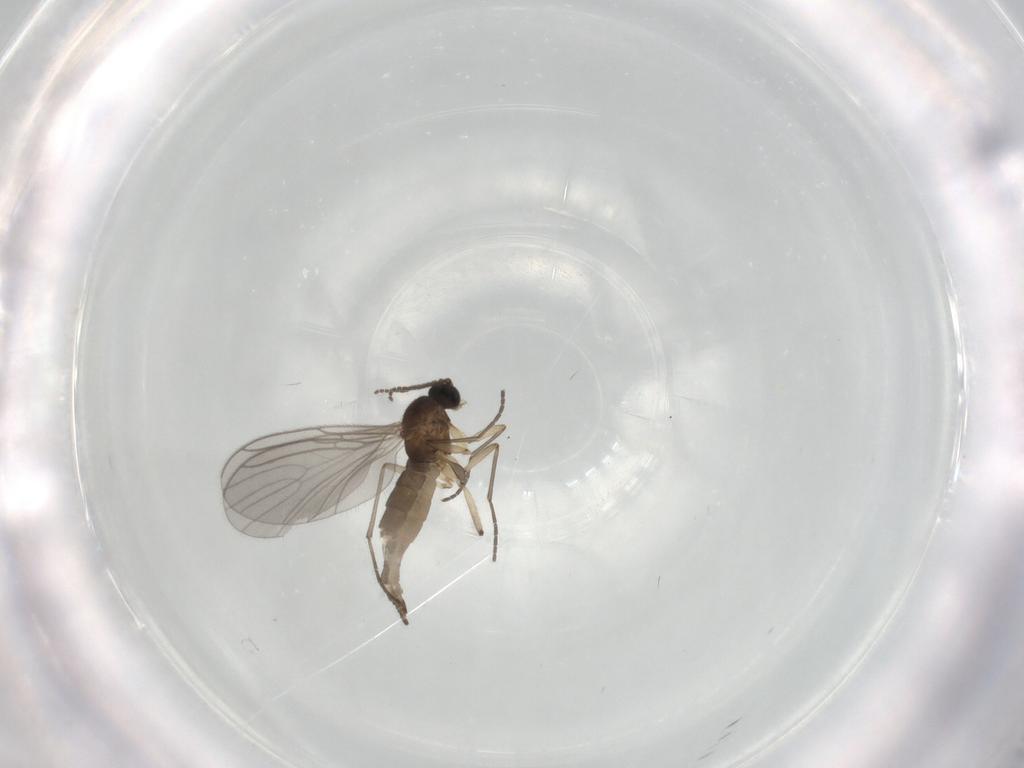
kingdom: Animalia
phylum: Arthropoda
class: Insecta
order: Diptera
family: Sciaridae
